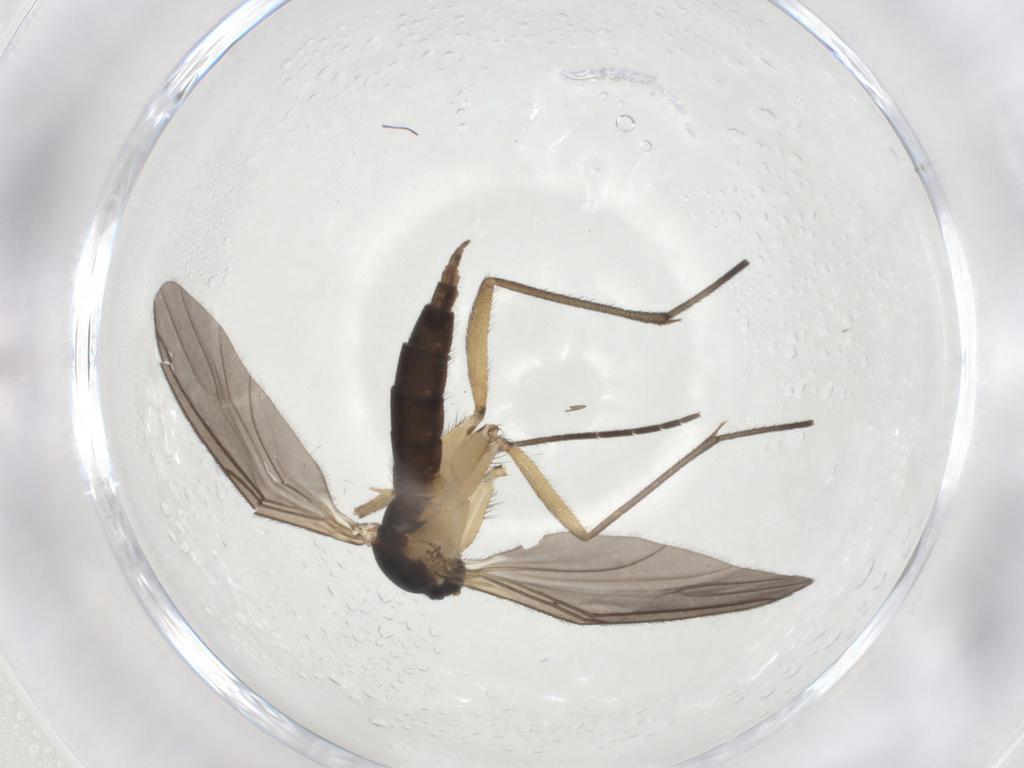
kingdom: Animalia
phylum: Arthropoda
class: Insecta
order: Diptera
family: Sciaridae
